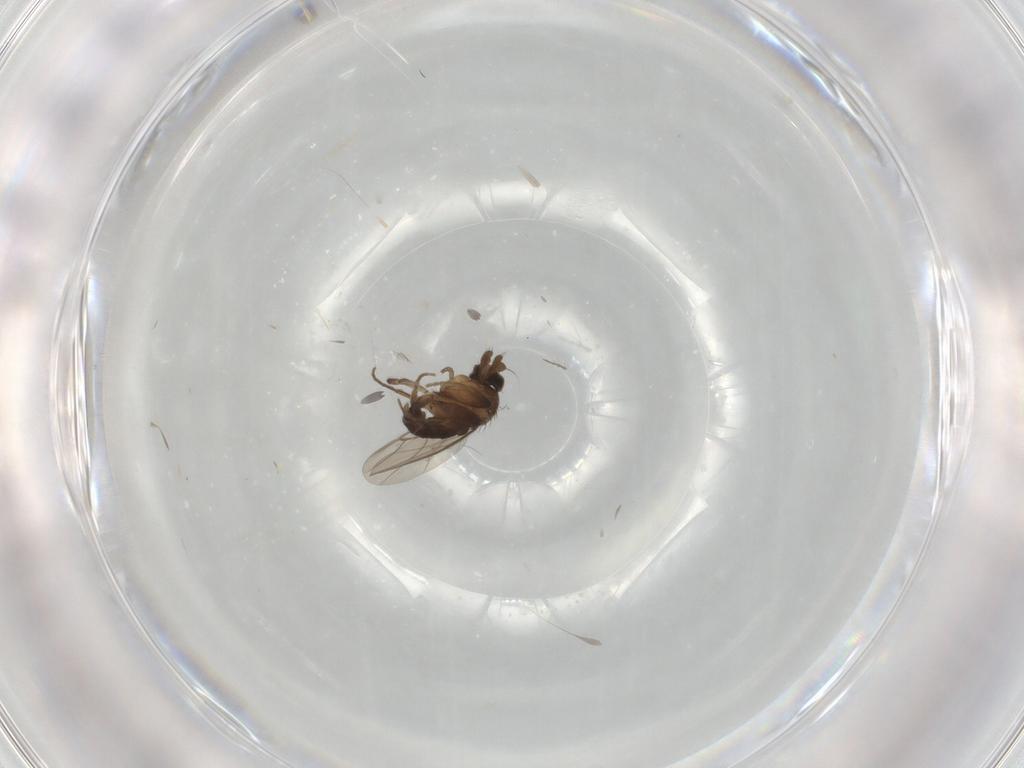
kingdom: Animalia
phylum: Arthropoda
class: Insecta
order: Diptera
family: Phoridae
